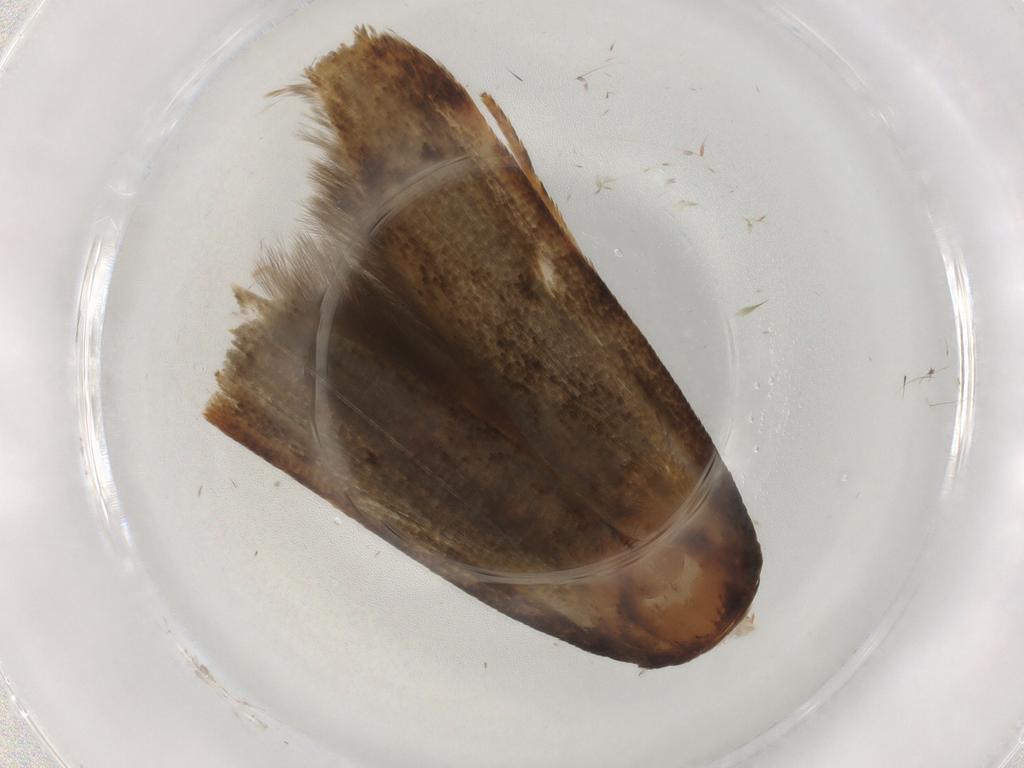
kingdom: Animalia
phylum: Arthropoda
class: Insecta
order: Lepidoptera
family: Blastobasidae
